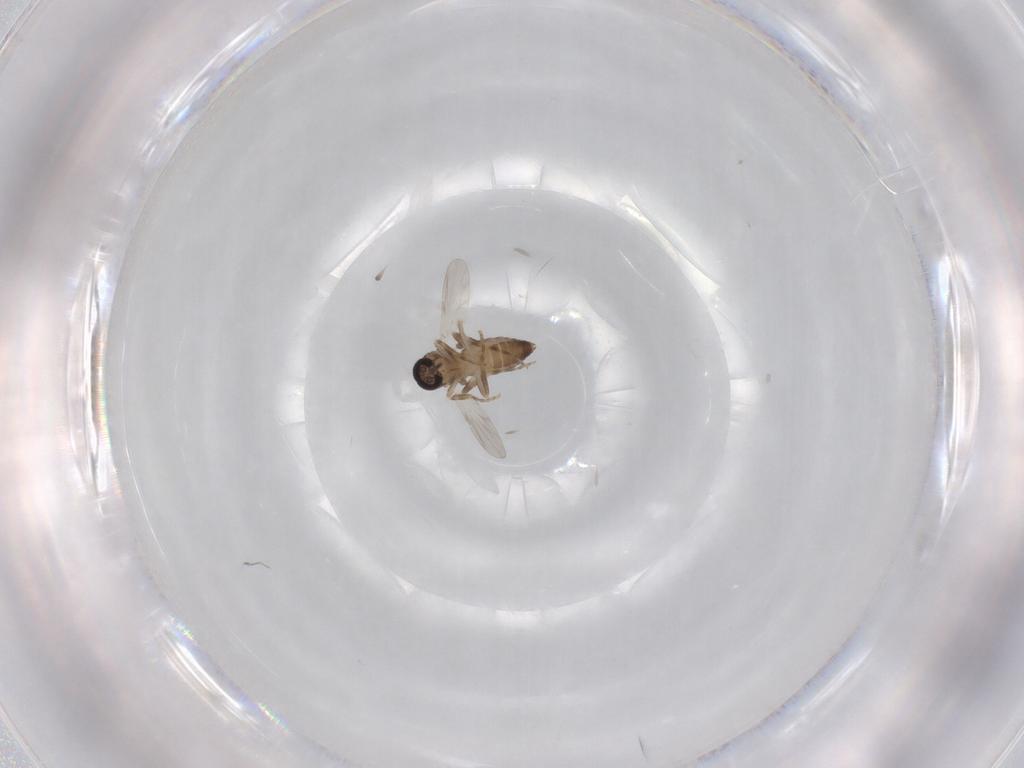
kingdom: Animalia
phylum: Arthropoda
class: Insecta
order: Diptera
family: Ceratopogonidae
